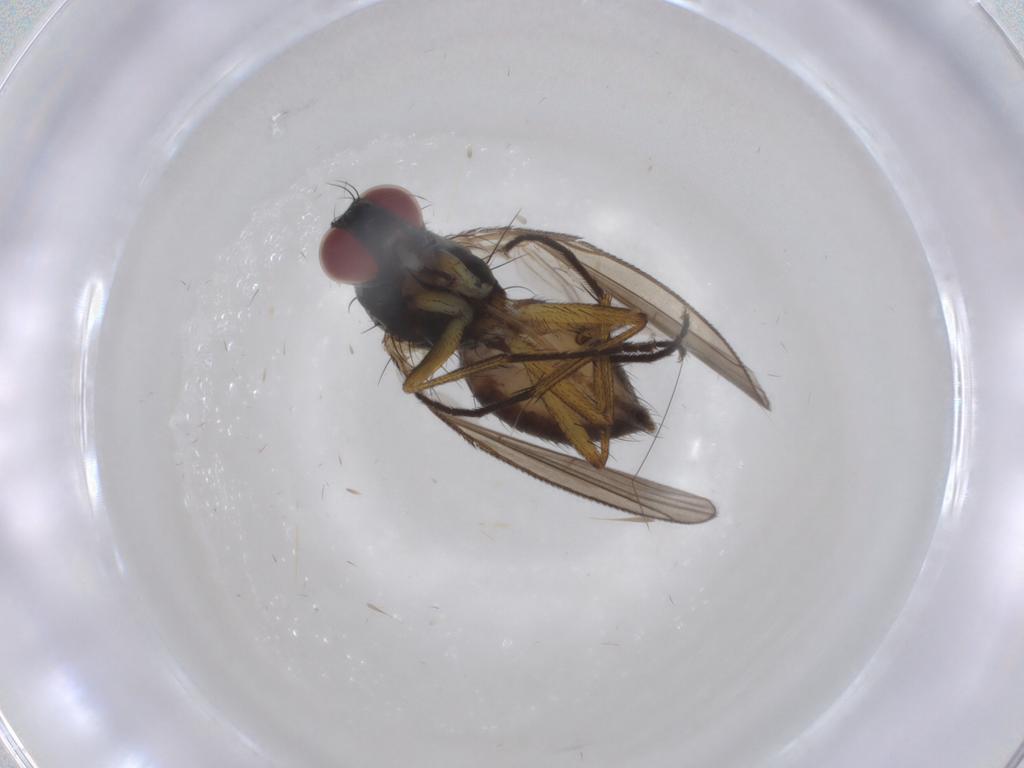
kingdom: Animalia
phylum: Arthropoda
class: Insecta
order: Diptera
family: Muscidae
